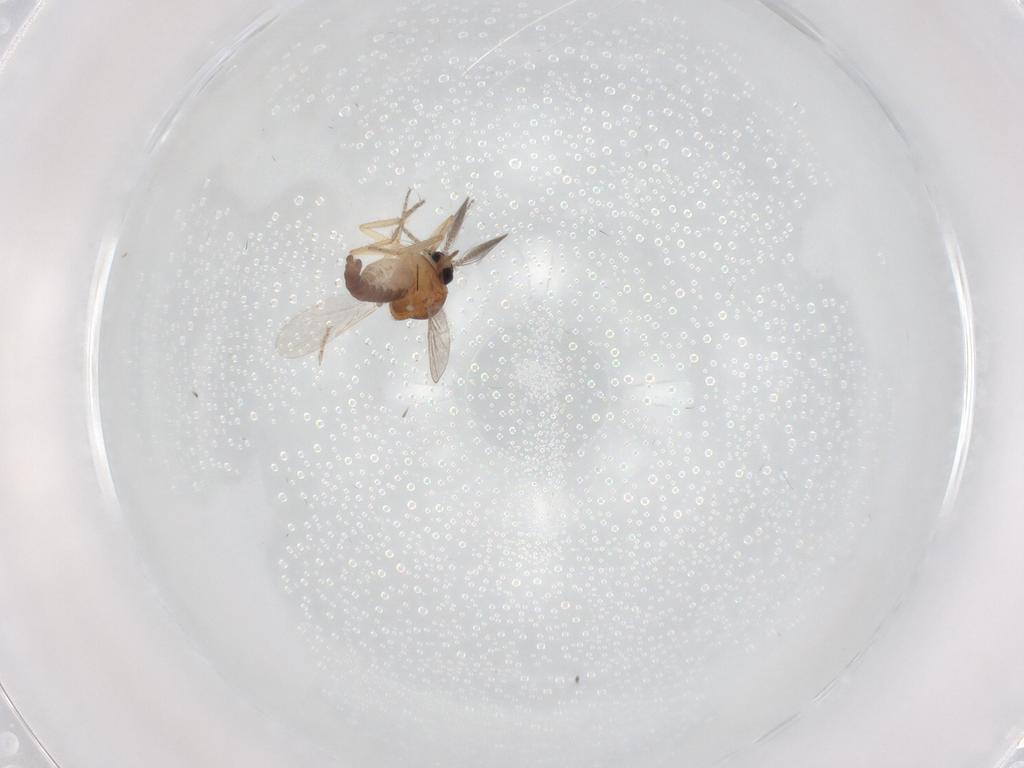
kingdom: Animalia
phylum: Arthropoda
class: Insecta
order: Diptera
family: Ceratopogonidae
